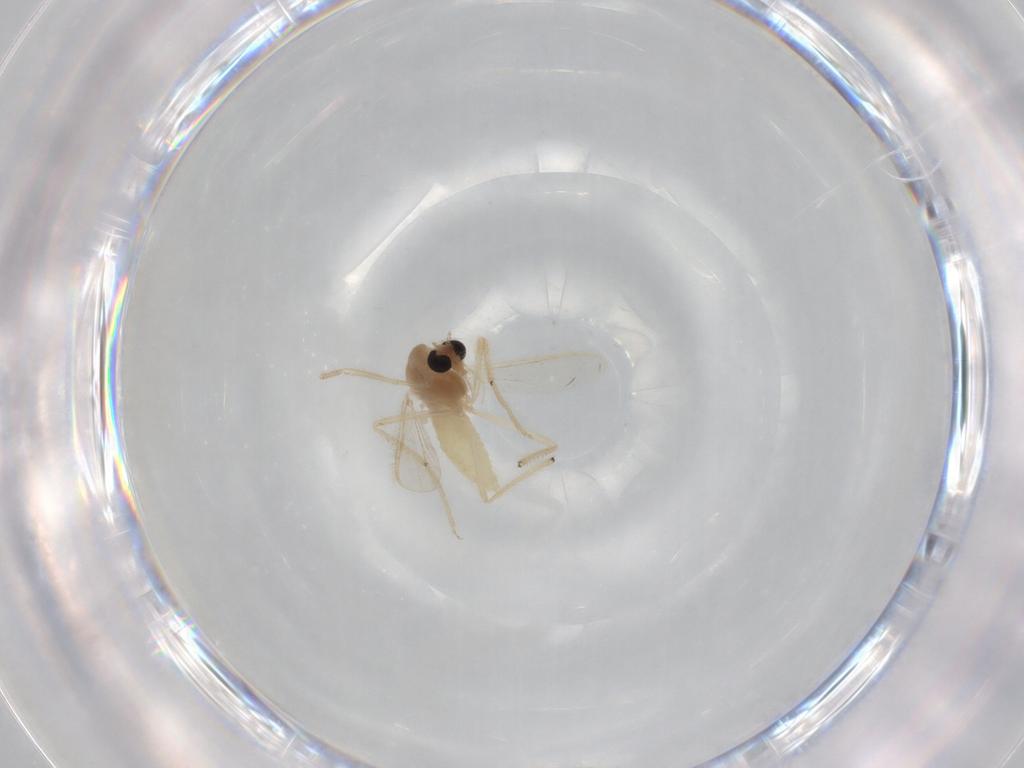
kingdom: Animalia
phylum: Arthropoda
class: Insecta
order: Diptera
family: Chironomidae
